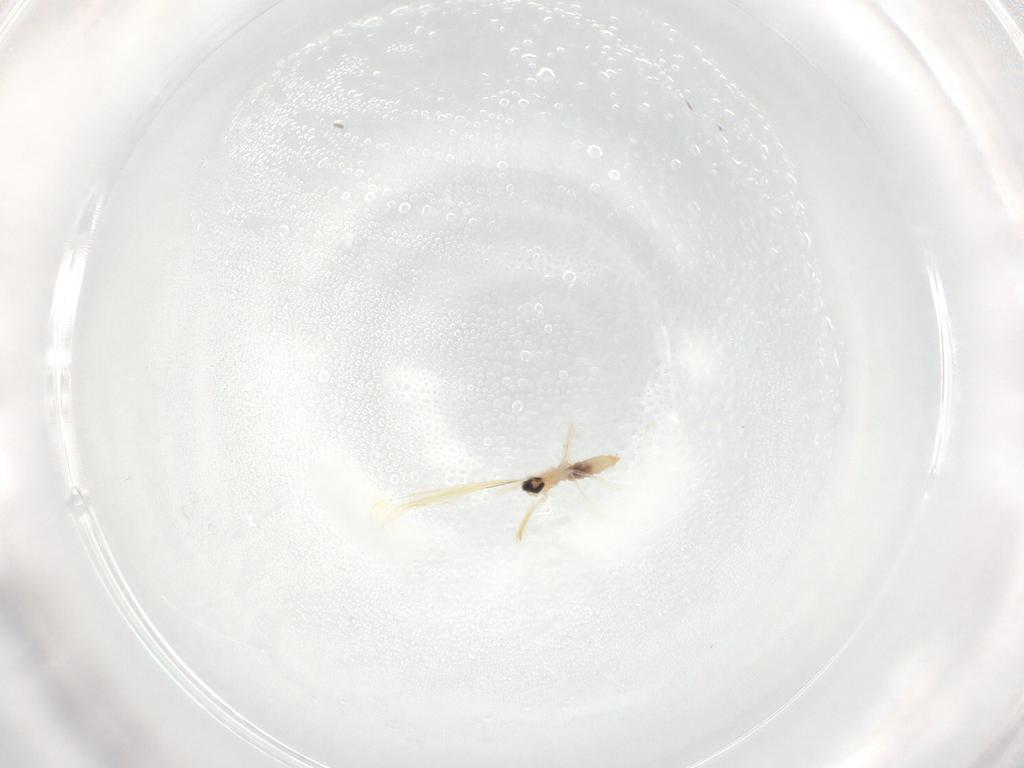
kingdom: Animalia
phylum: Arthropoda
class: Insecta
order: Diptera
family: Cecidomyiidae
